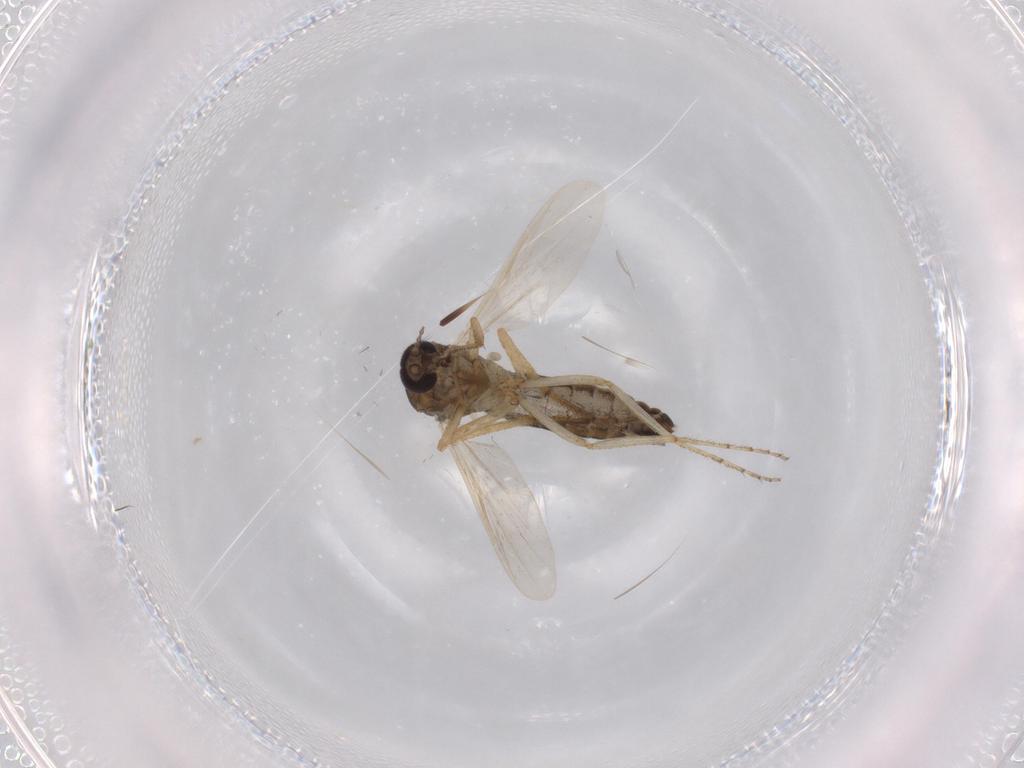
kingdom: Animalia
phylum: Arthropoda
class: Insecta
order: Diptera
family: Ceratopogonidae
